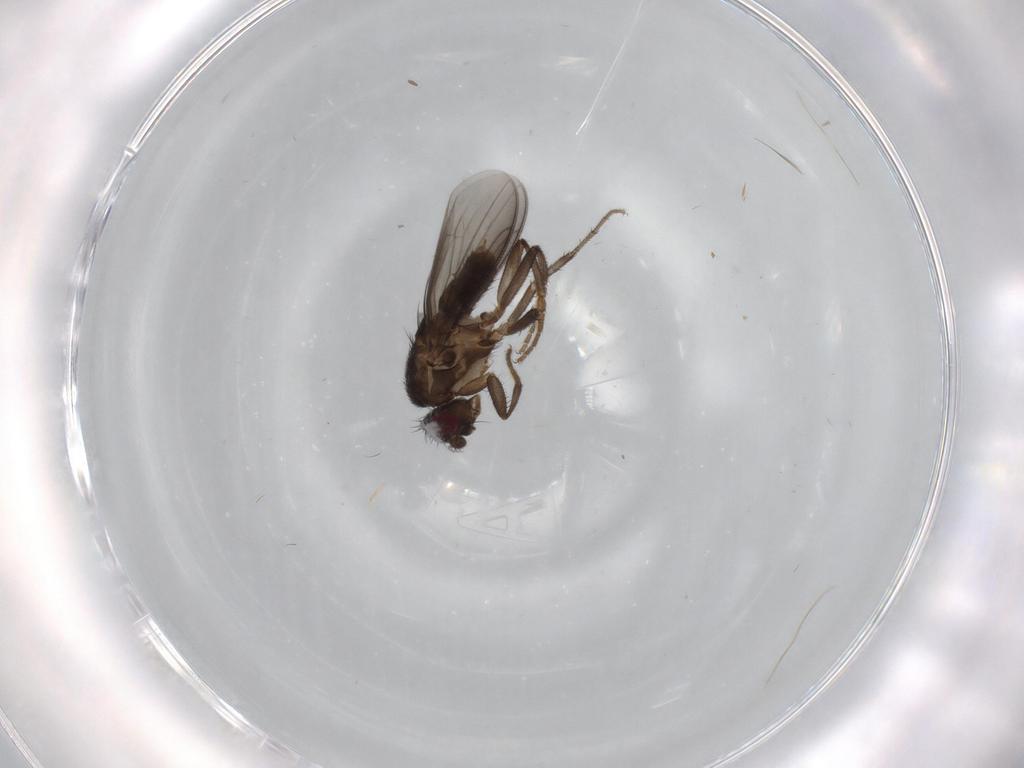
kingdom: Animalia
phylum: Arthropoda
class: Insecta
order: Diptera
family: Sphaeroceridae
